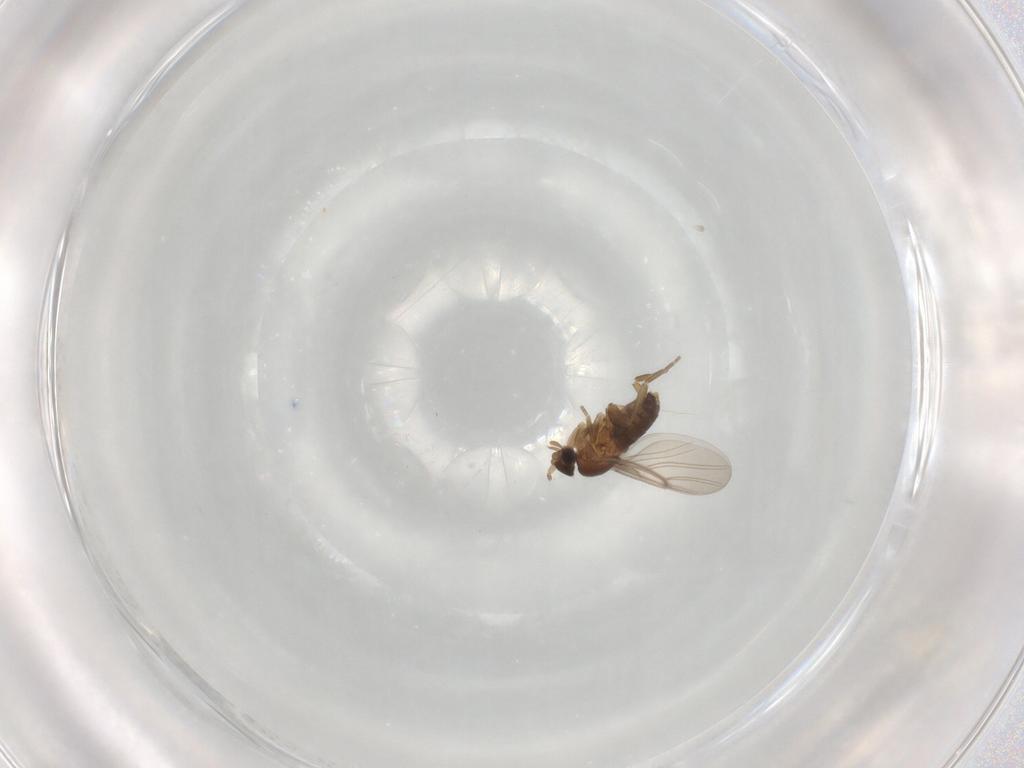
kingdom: Animalia
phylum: Arthropoda
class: Insecta
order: Diptera
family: Phoridae
